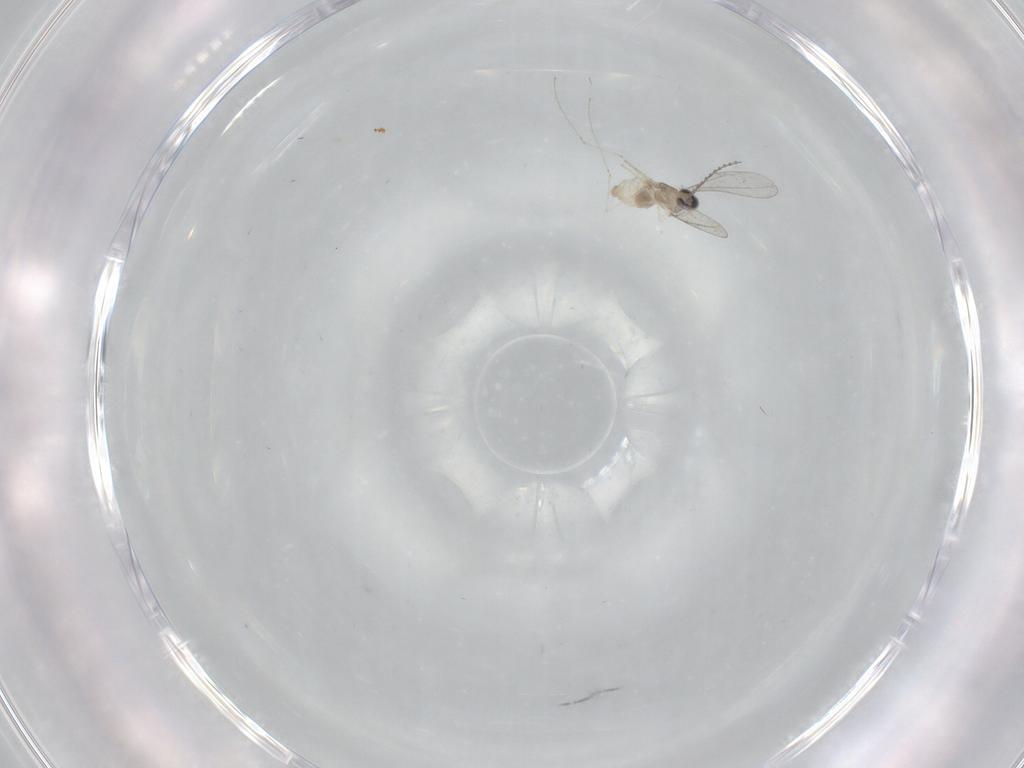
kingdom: Animalia
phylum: Arthropoda
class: Insecta
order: Diptera
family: Cecidomyiidae
